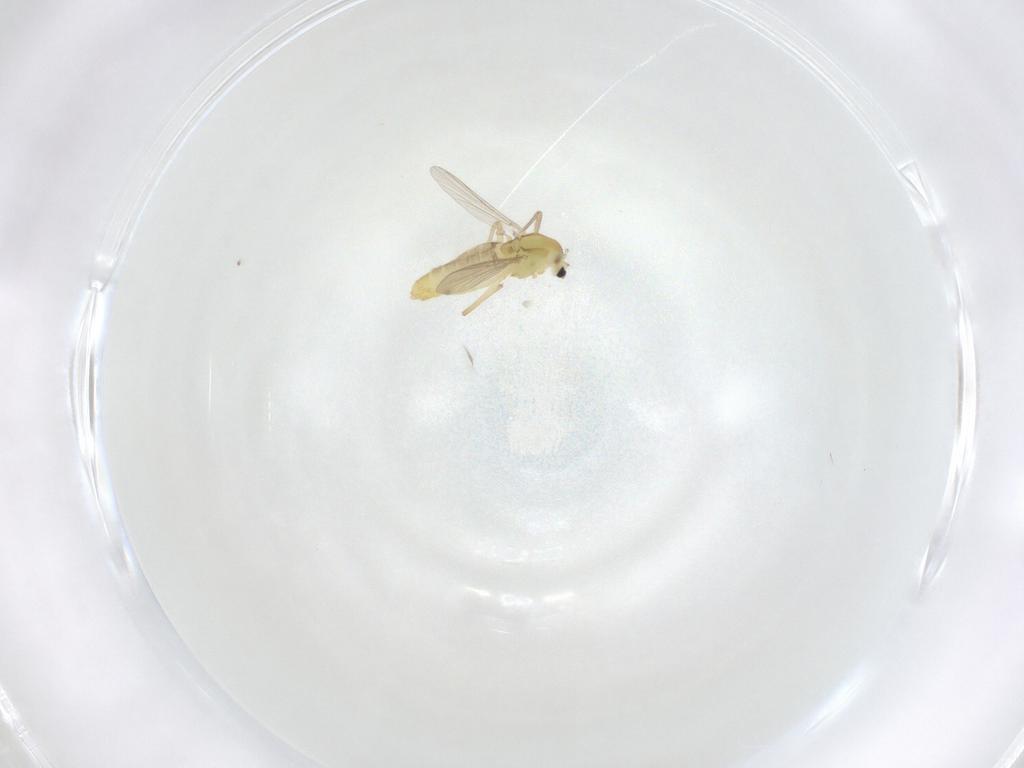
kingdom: Animalia
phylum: Arthropoda
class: Insecta
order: Diptera
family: Chironomidae
